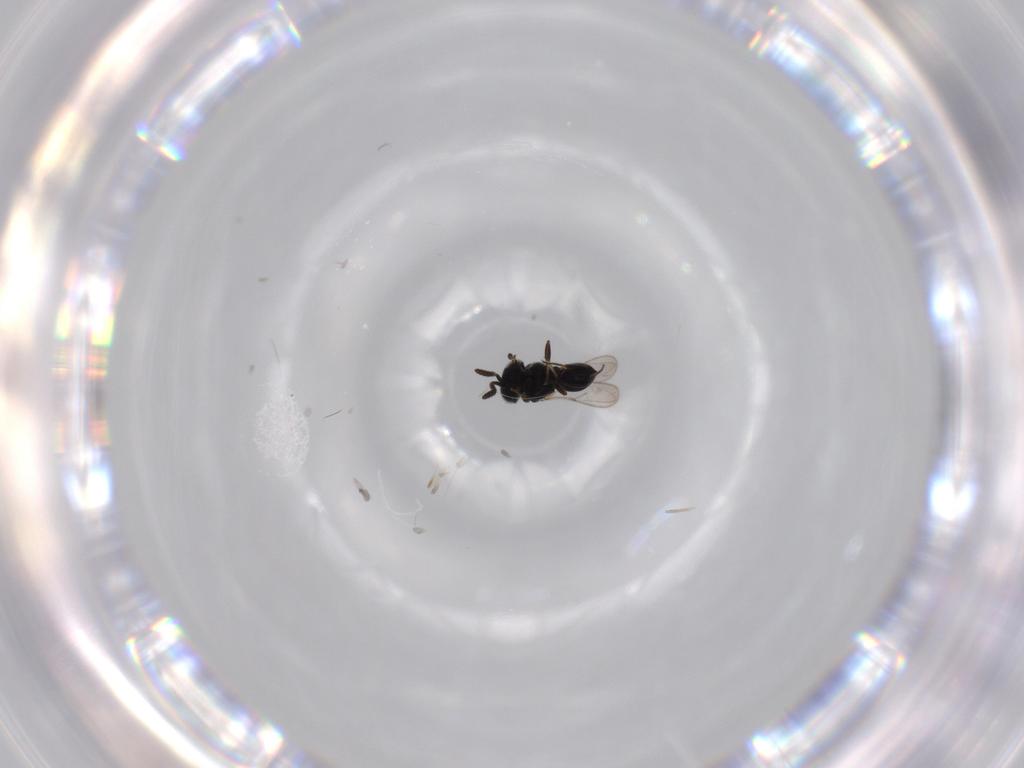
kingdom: Animalia
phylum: Arthropoda
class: Insecta
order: Hymenoptera
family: Scelionidae
